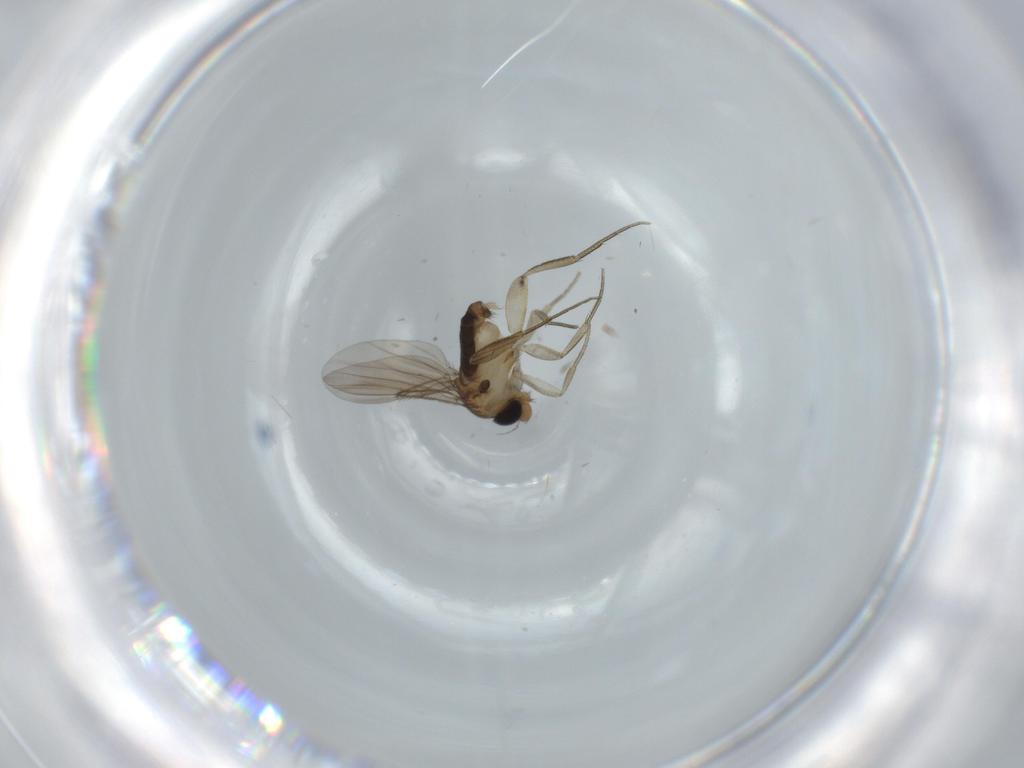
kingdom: Animalia
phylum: Arthropoda
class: Insecta
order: Diptera
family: Phoridae
